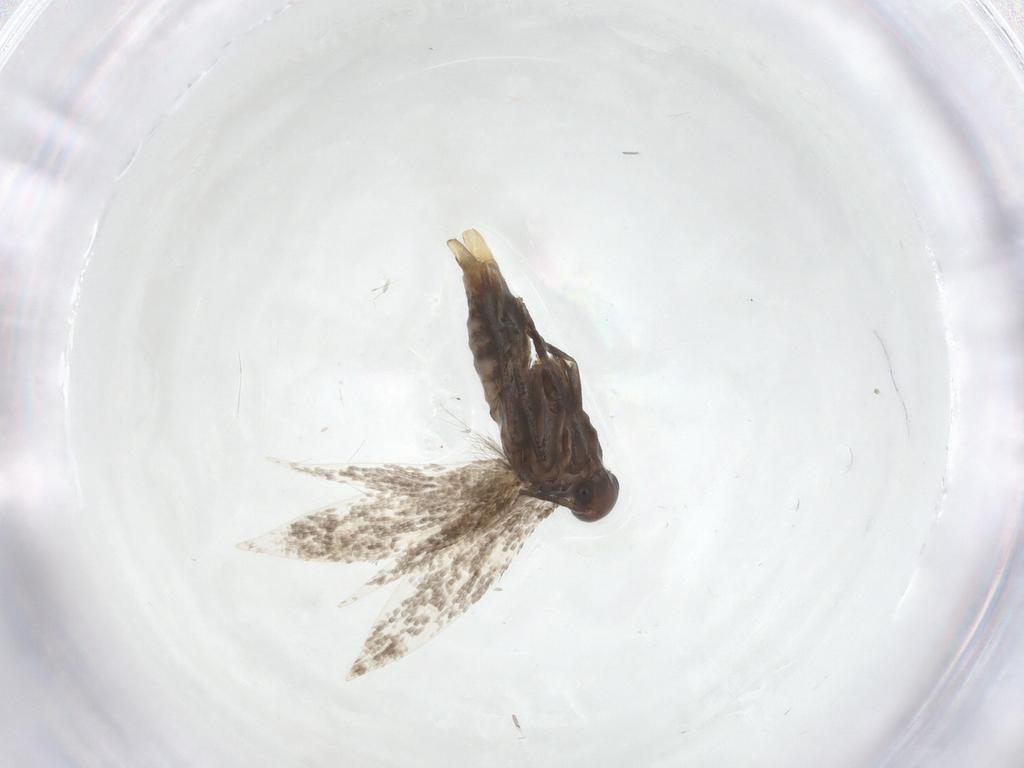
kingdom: Animalia
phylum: Arthropoda
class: Insecta
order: Lepidoptera
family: Elachistidae
